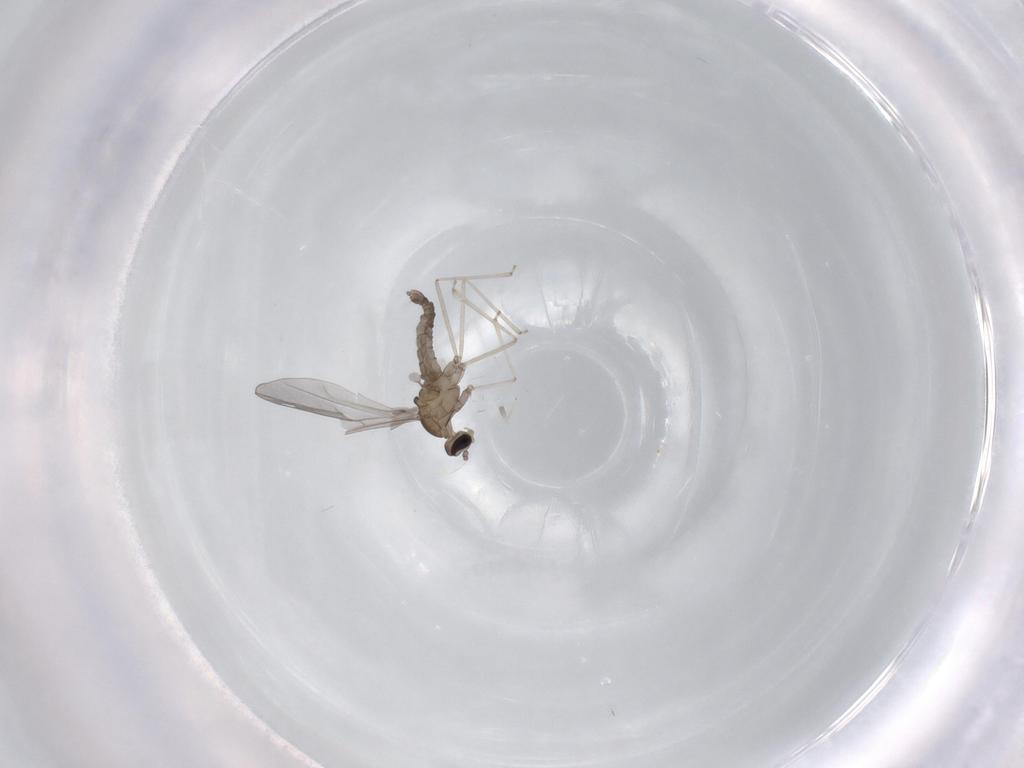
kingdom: Animalia
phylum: Arthropoda
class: Insecta
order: Diptera
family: Cecidomyiidae
